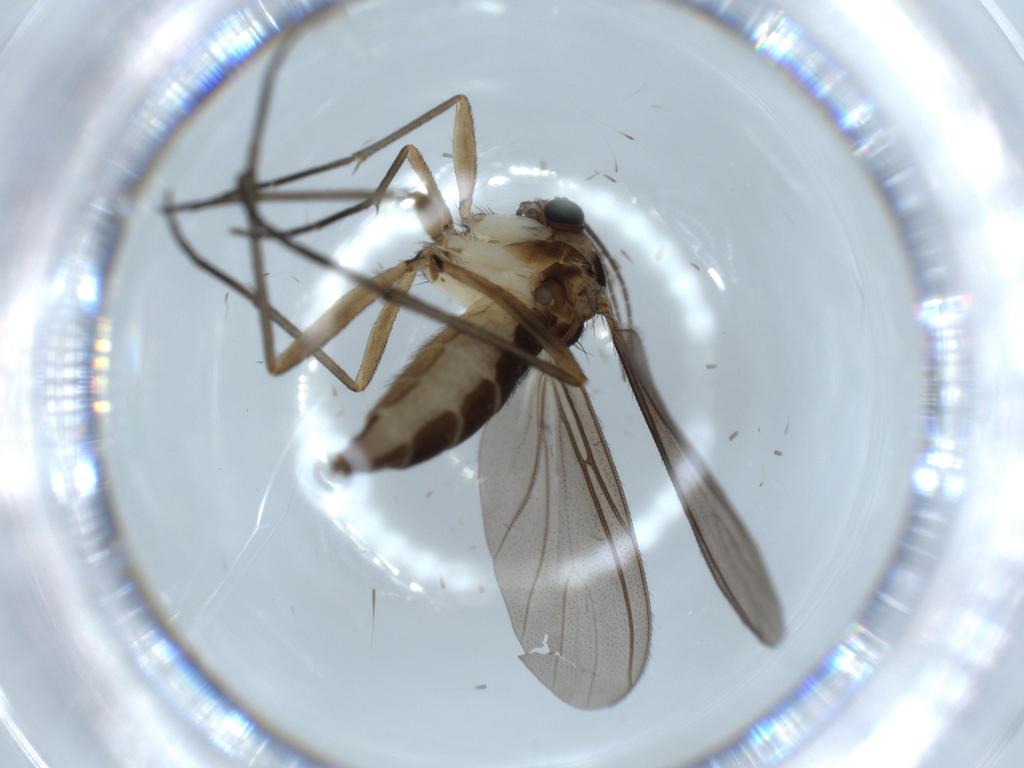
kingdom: Animalia
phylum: Arthropoda
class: Insecta
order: Diptera
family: Sciaridae
